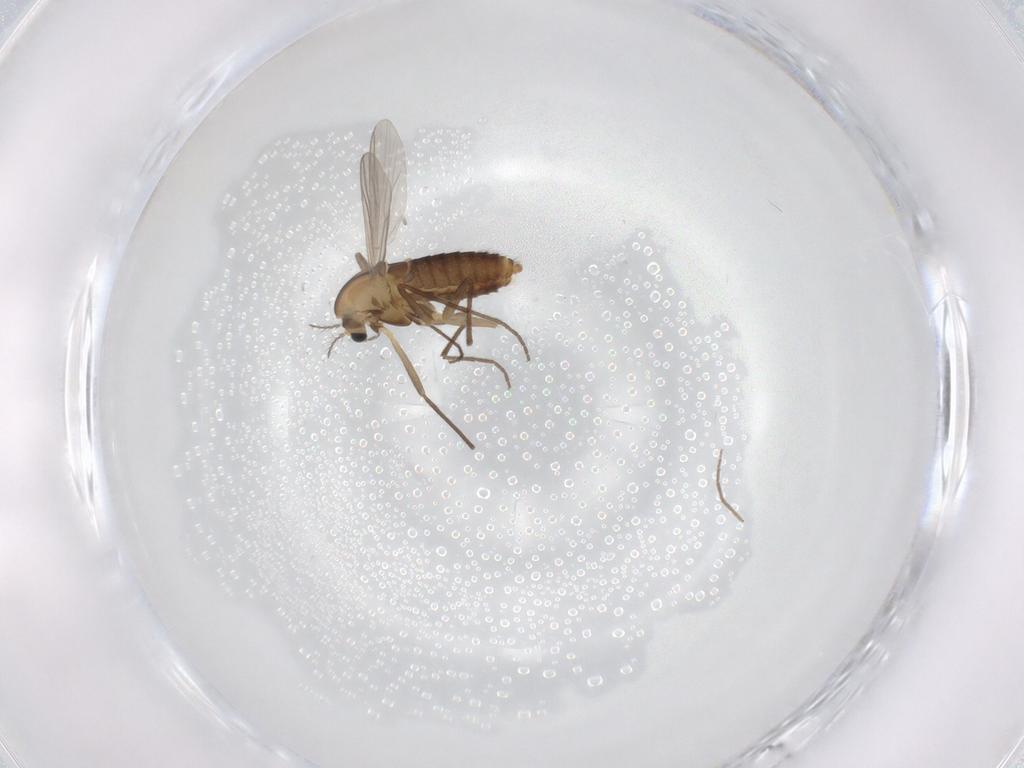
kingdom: Animalia
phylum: Arthropoda
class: Insecta
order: Diptera
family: Chironomidae
